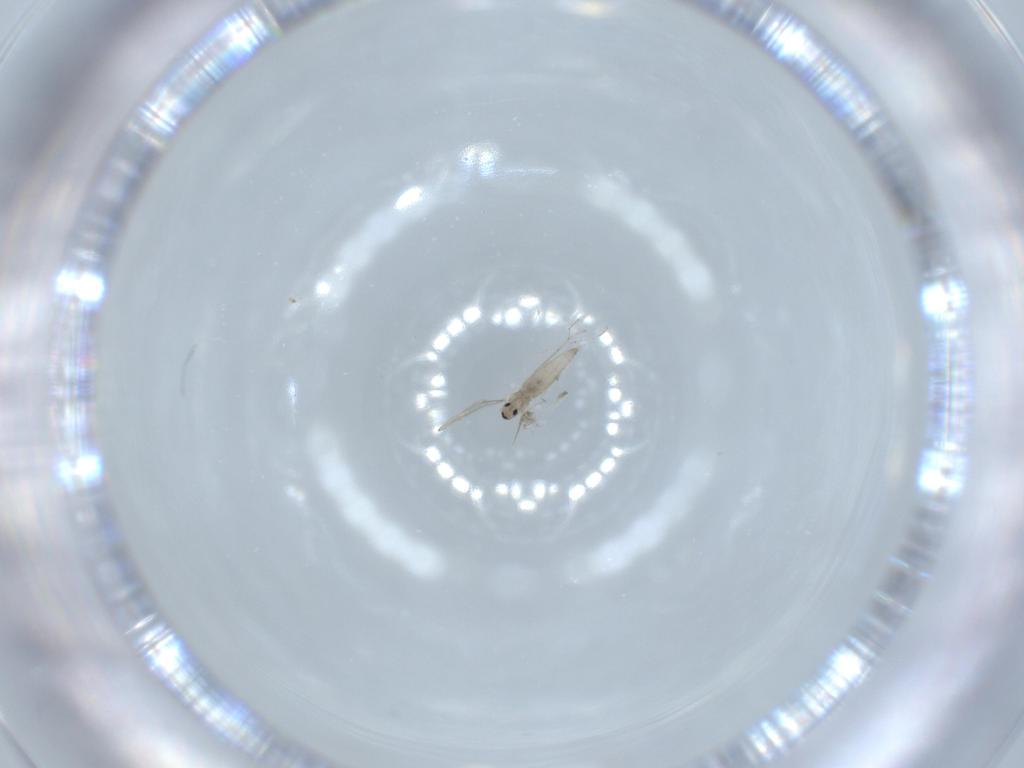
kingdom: Animalia
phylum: Arthropoda
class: Insecta
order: Diptera
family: Cecidomyiidae
